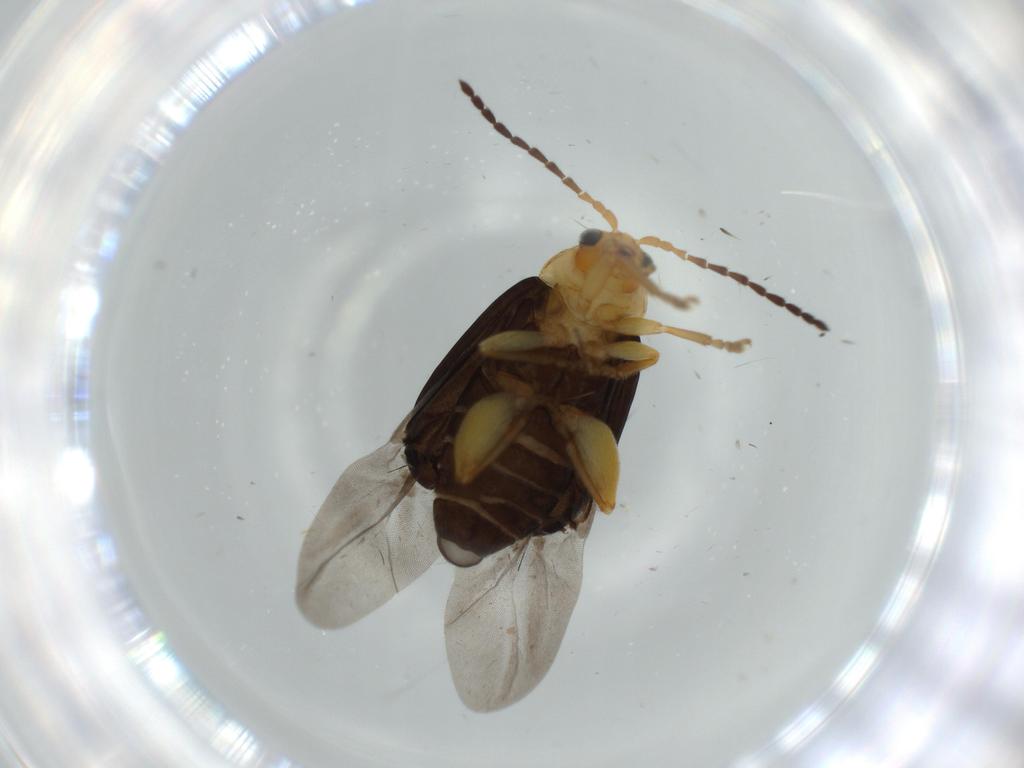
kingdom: Animalia
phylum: Arthropoda
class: Insecta
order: Coleoptera
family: Chrysomelidae
